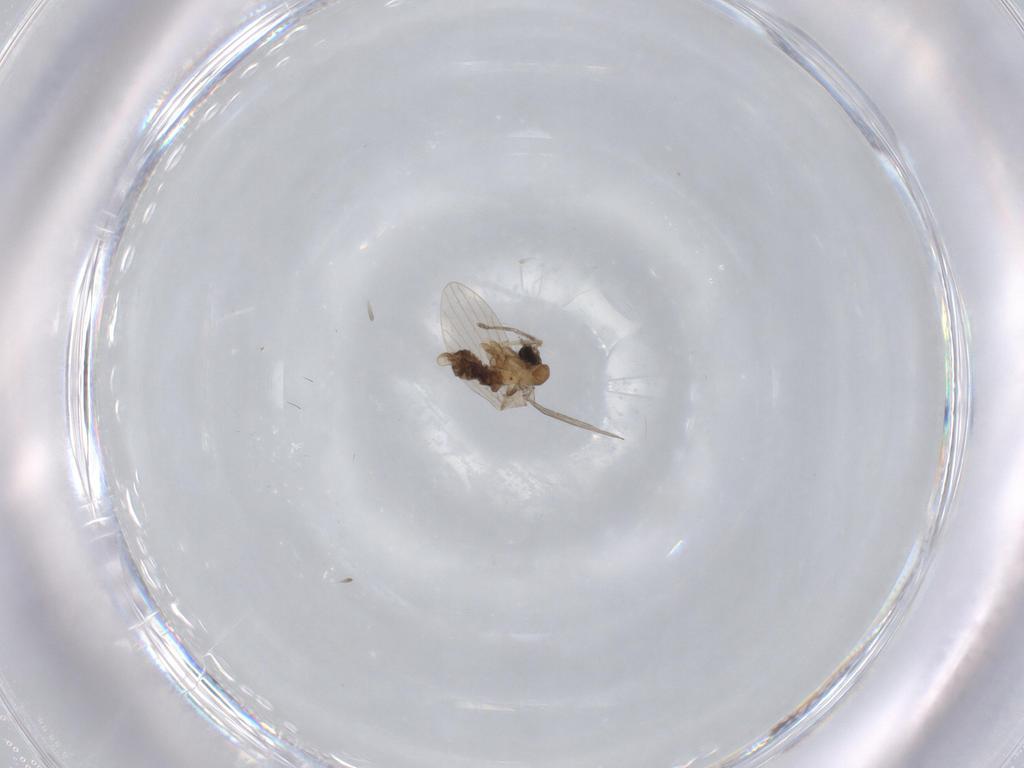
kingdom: Animalia
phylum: Arthropoda
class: Insecta
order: Diptera
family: Psychodidae
